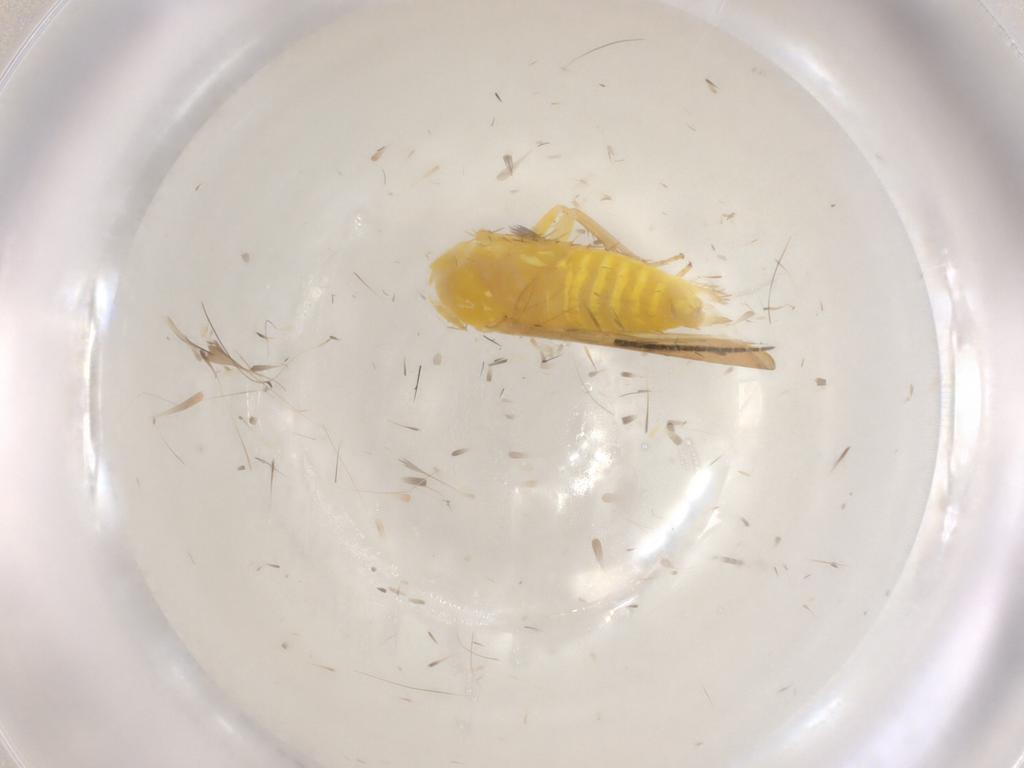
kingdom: Animalia
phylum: Arthropoda
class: Insecta
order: Hemiptera
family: Cicadellidae
